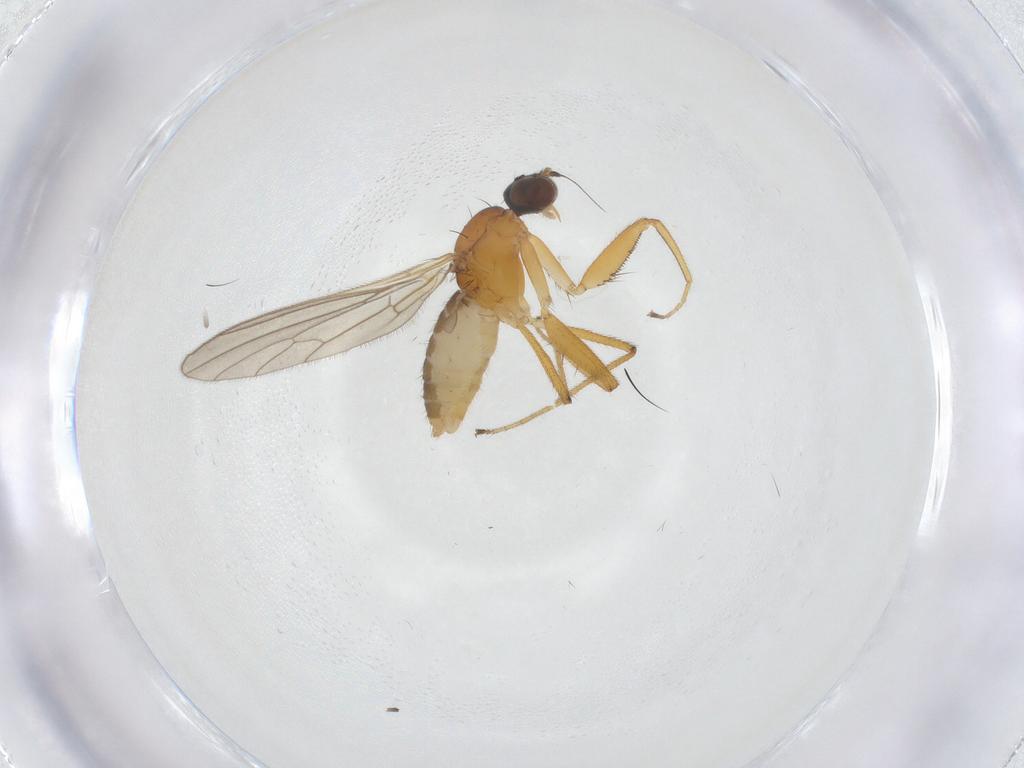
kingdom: Animalia
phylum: Arthropoda
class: Insecta
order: Diptera
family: Empididae
